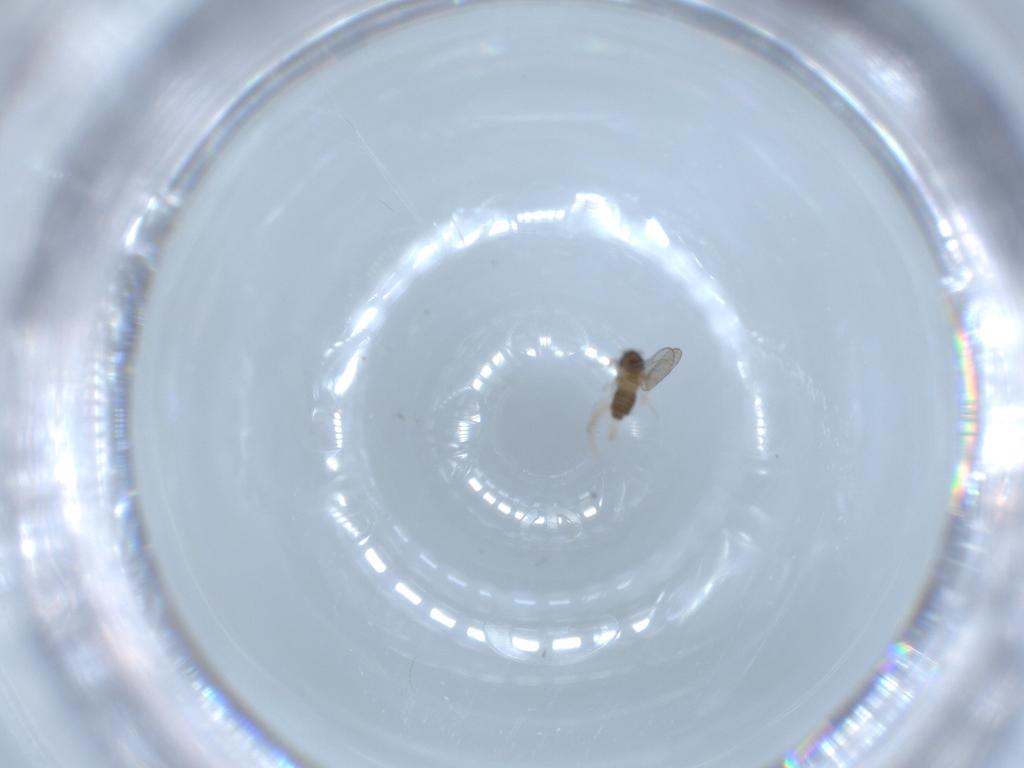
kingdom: Animalia
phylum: Arthropoda
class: Insecta
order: Diptera
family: Cecidomyiidae
